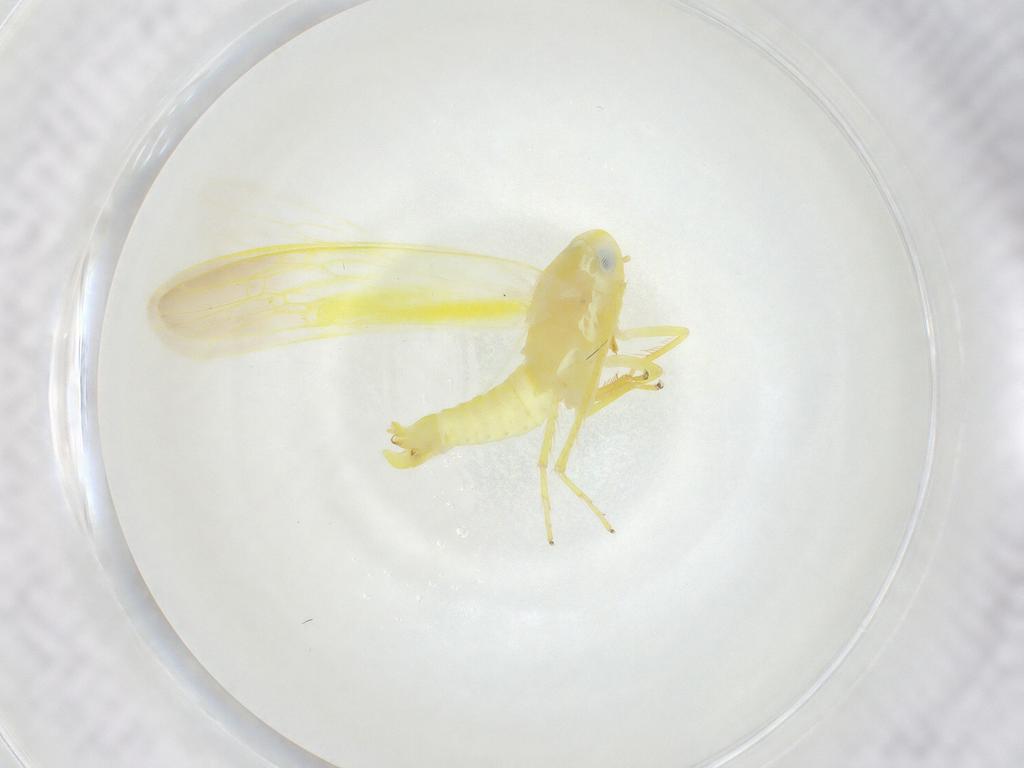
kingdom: Animalia
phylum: Arthropoda
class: Insecta
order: Hemiptera
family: Cicadellidae
